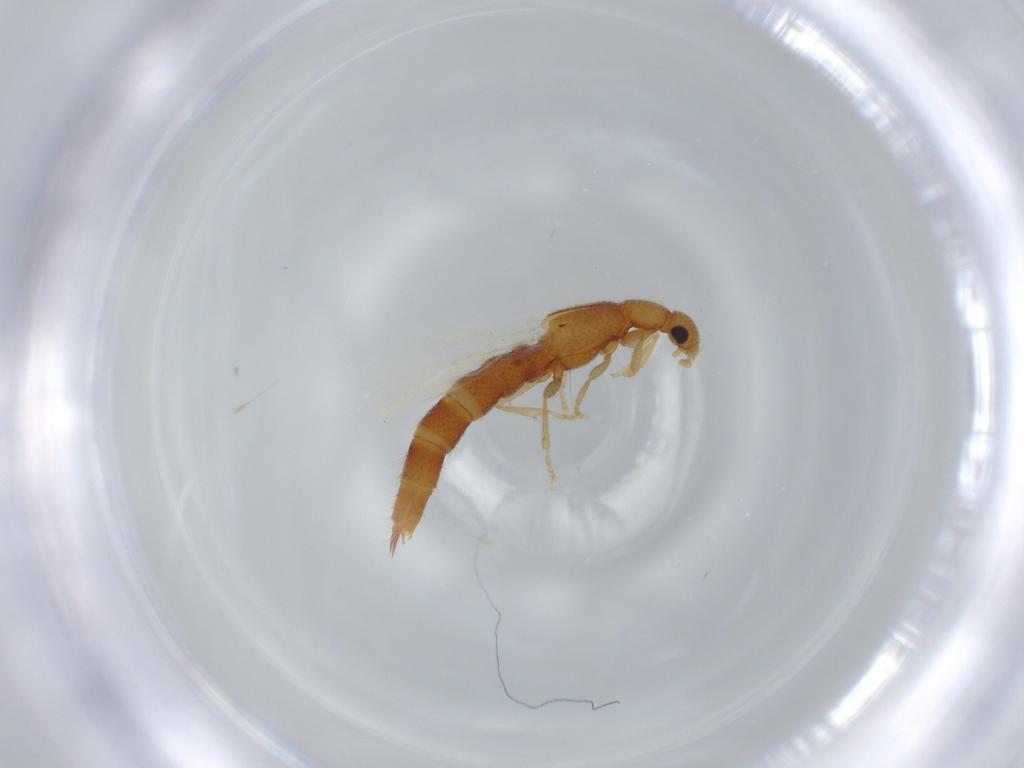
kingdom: Animalia
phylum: Arthropoda
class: Insecta
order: Coleoptera
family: Staphylinidae
